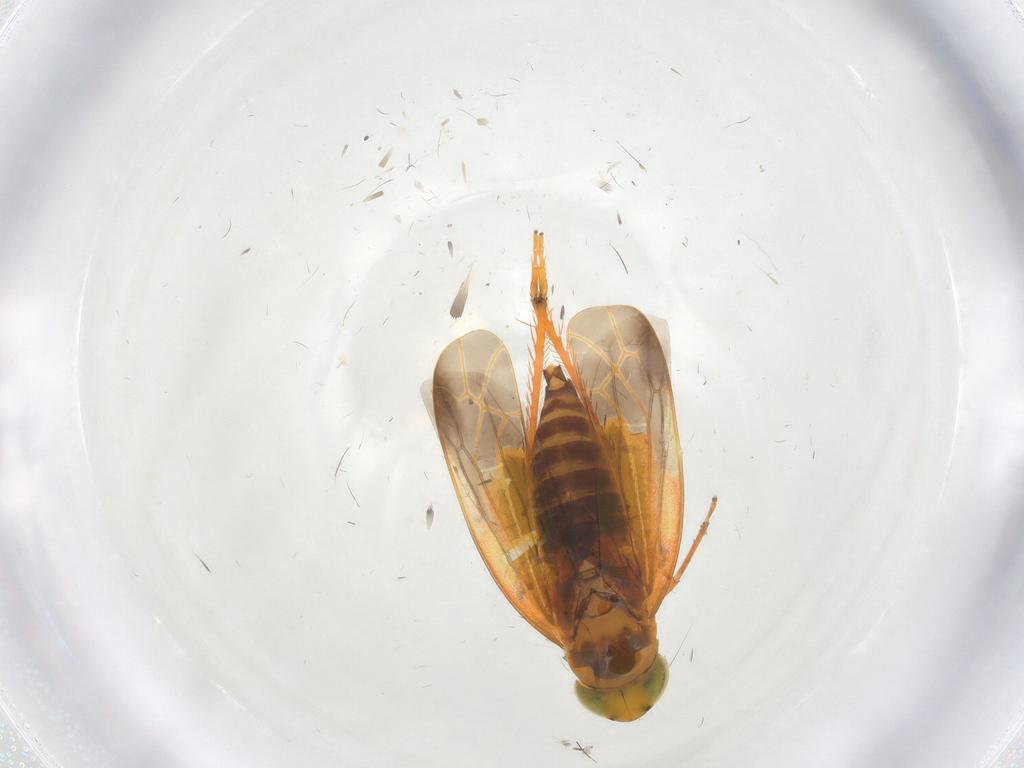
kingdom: Animalia
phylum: Arthropoda
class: Insecta
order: Hemiptera
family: Cicadellidae
